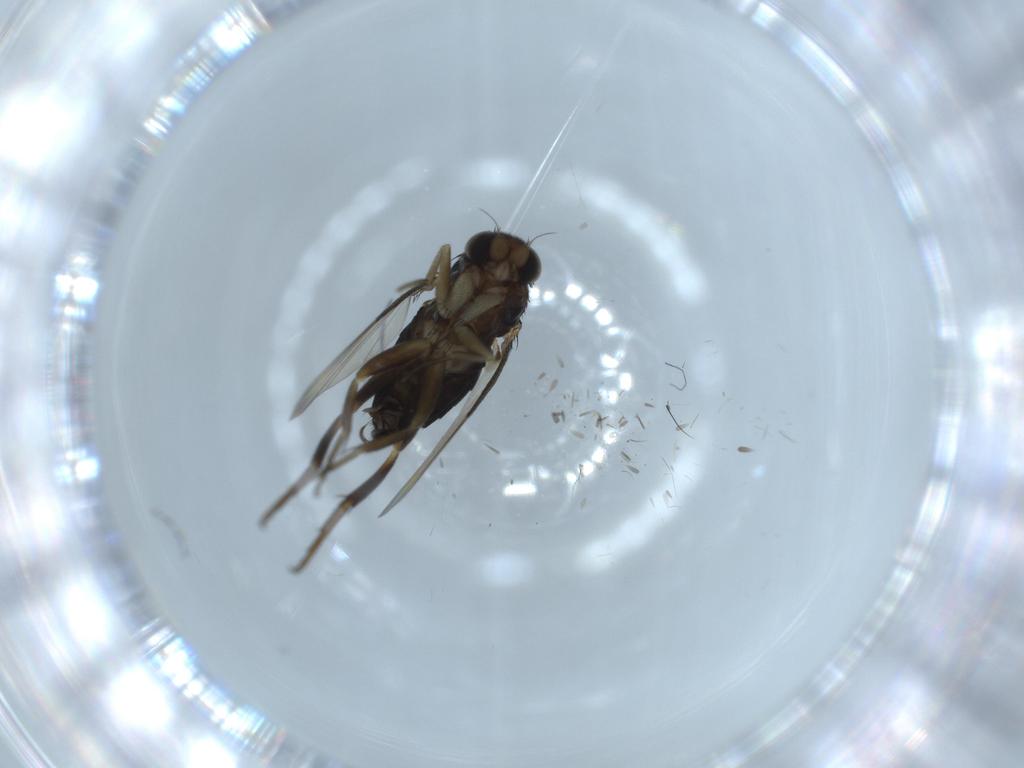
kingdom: Animalia
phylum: Arthropoda
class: Insecta
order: Diptera
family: Phoridae
